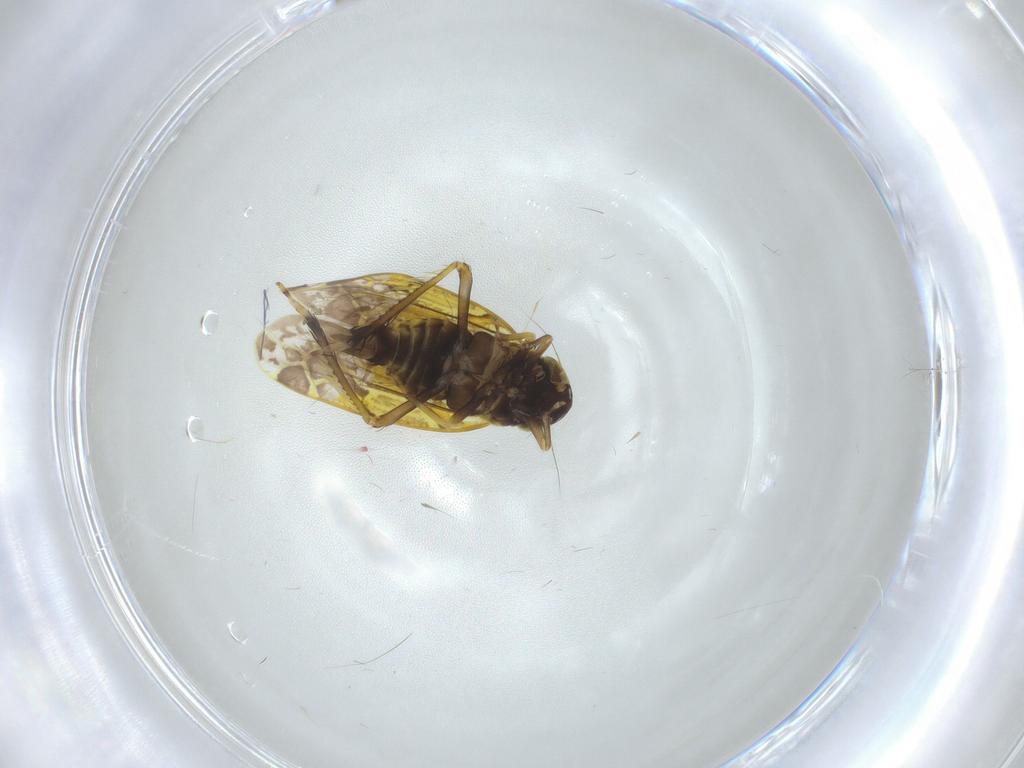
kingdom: Animalia
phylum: Arthropoda
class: Insecta
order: Hemiptera
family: Cicadellidae
